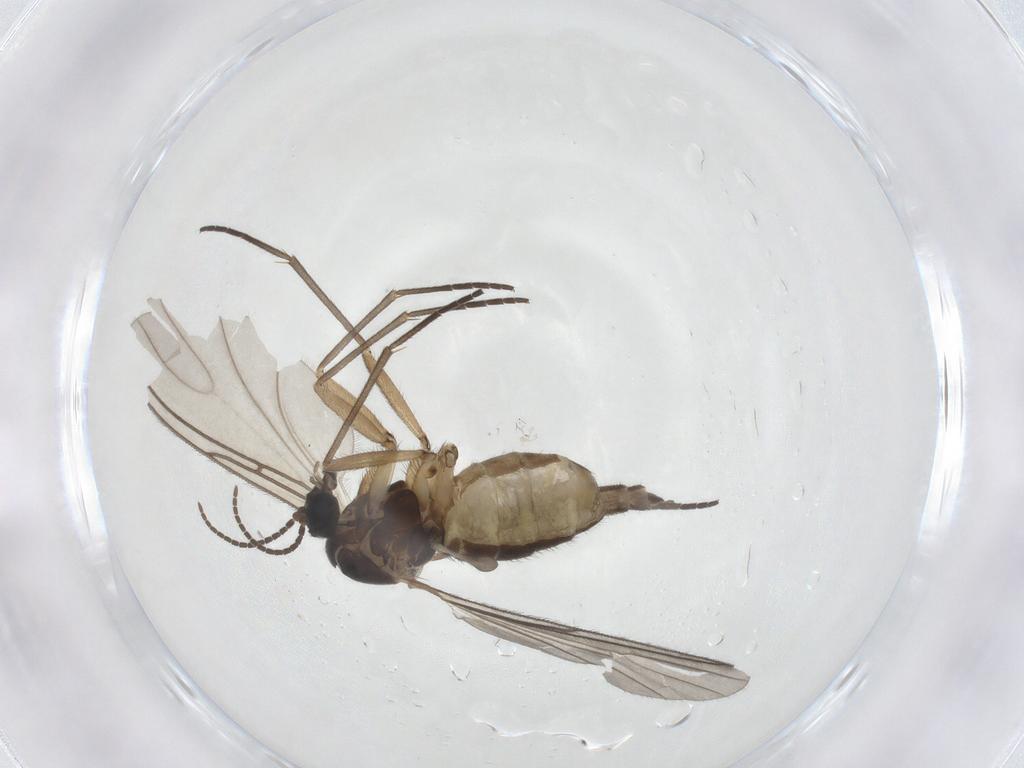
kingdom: Animalia
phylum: Arthropoda
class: Insecta
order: Diptera
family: Sciaridae
